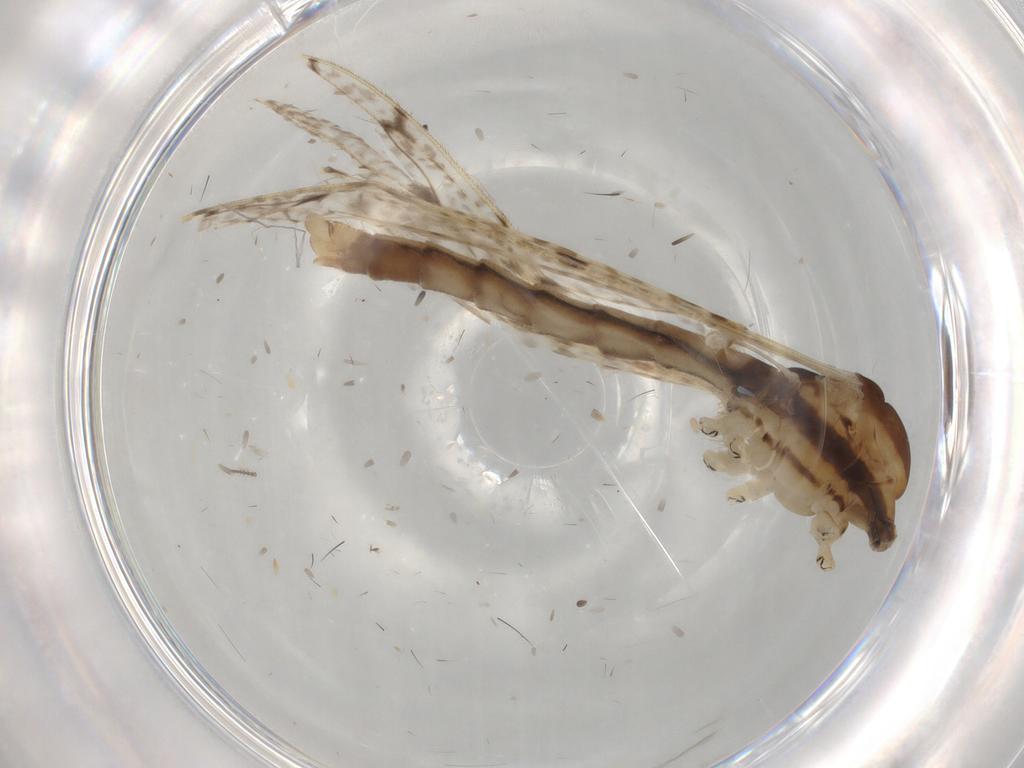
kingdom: Animalia
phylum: Arthropoda
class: Insecta
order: Diptera
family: Limoniidae
